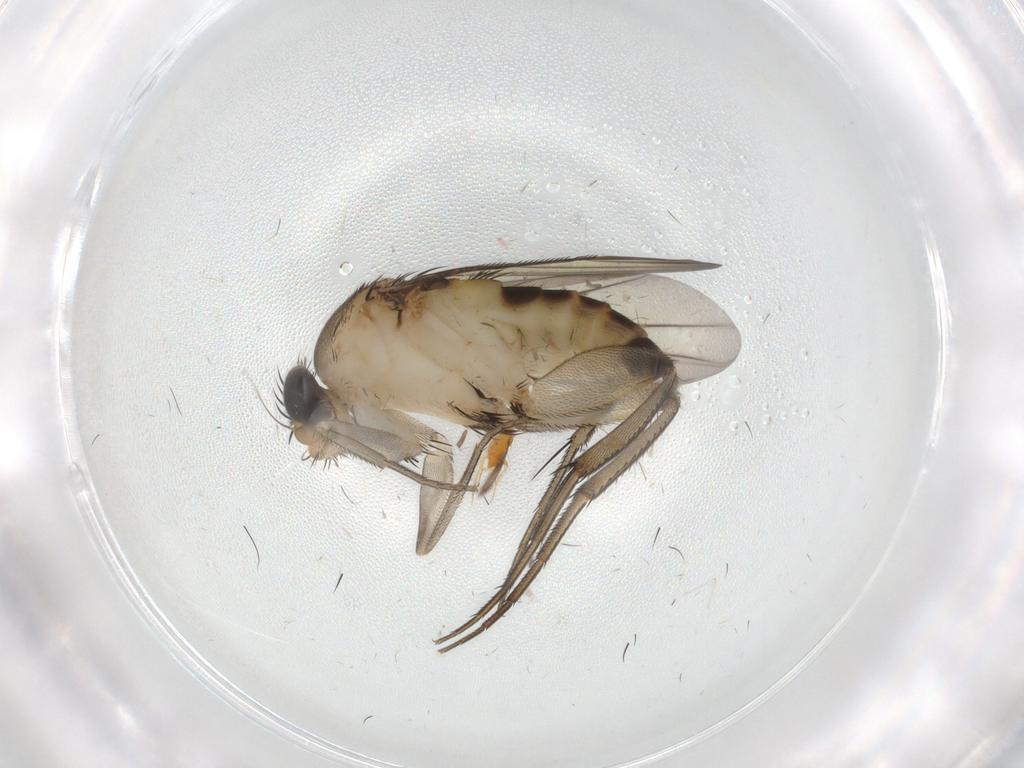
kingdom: Animalia
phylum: Arthropoda
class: Insecta
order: Diptera
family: Phoridae
